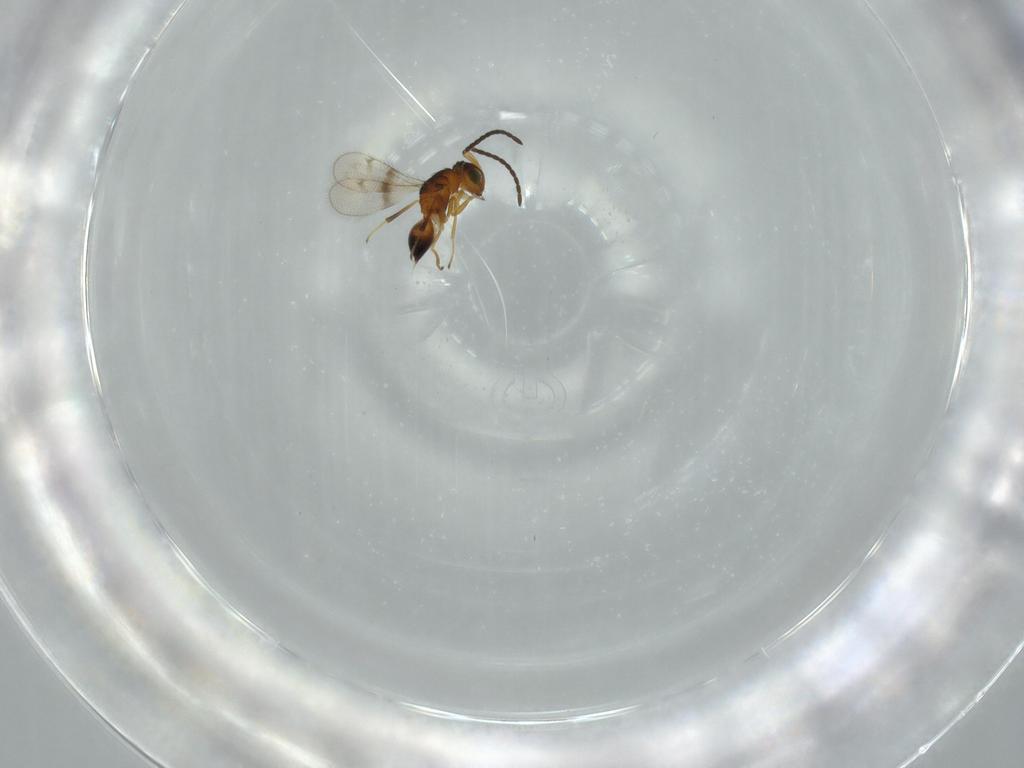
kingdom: Animalia
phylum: Arthropoda
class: Insecta
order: Hymenoptera
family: Diparidae
